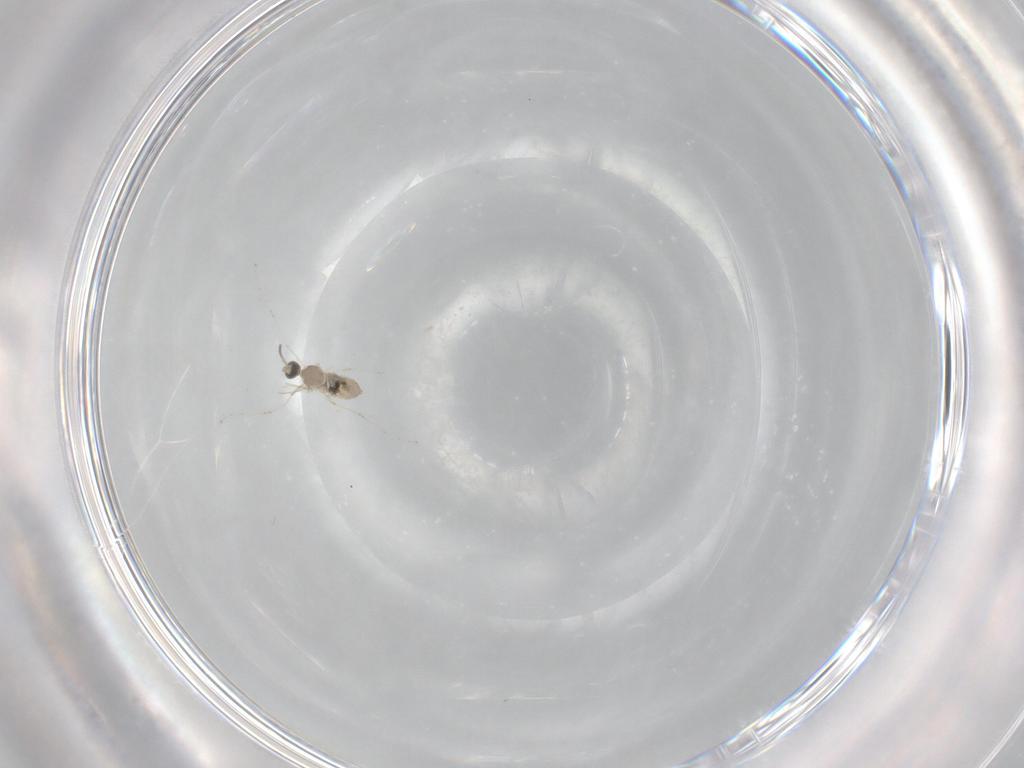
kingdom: Animalia
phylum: Arthropoda
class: Insecta
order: Diptera
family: Cecidomyiidae
